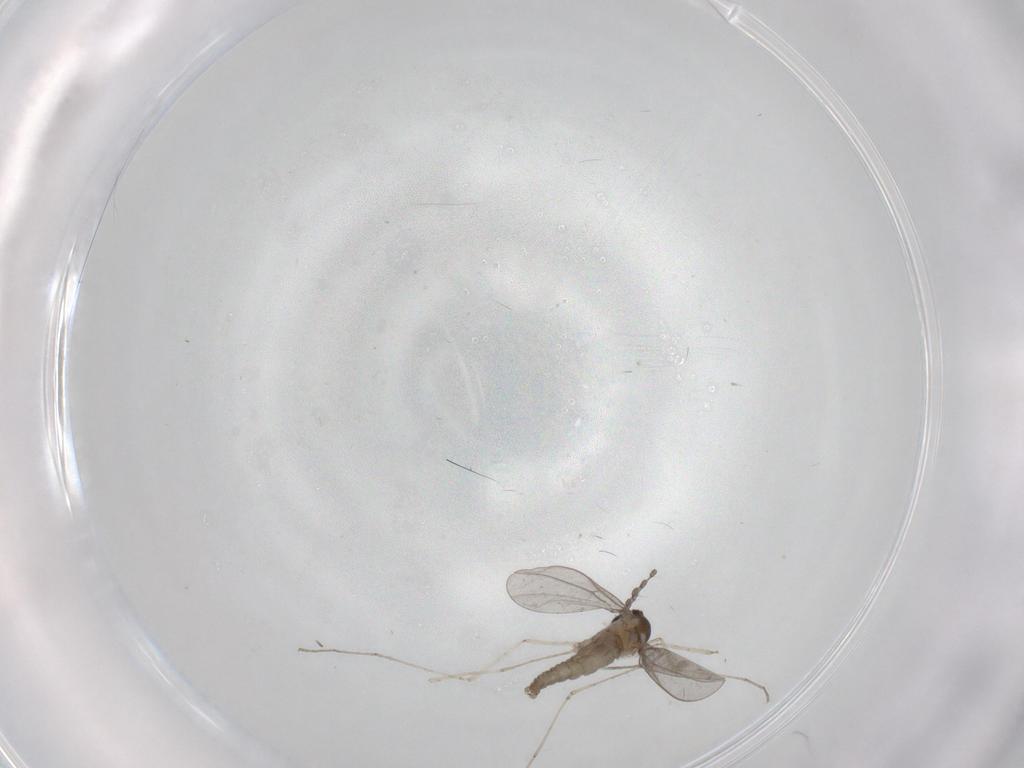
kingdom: Animalia
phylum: Arthropoda
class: Insecta
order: Diptera
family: Cecidomyiidae
